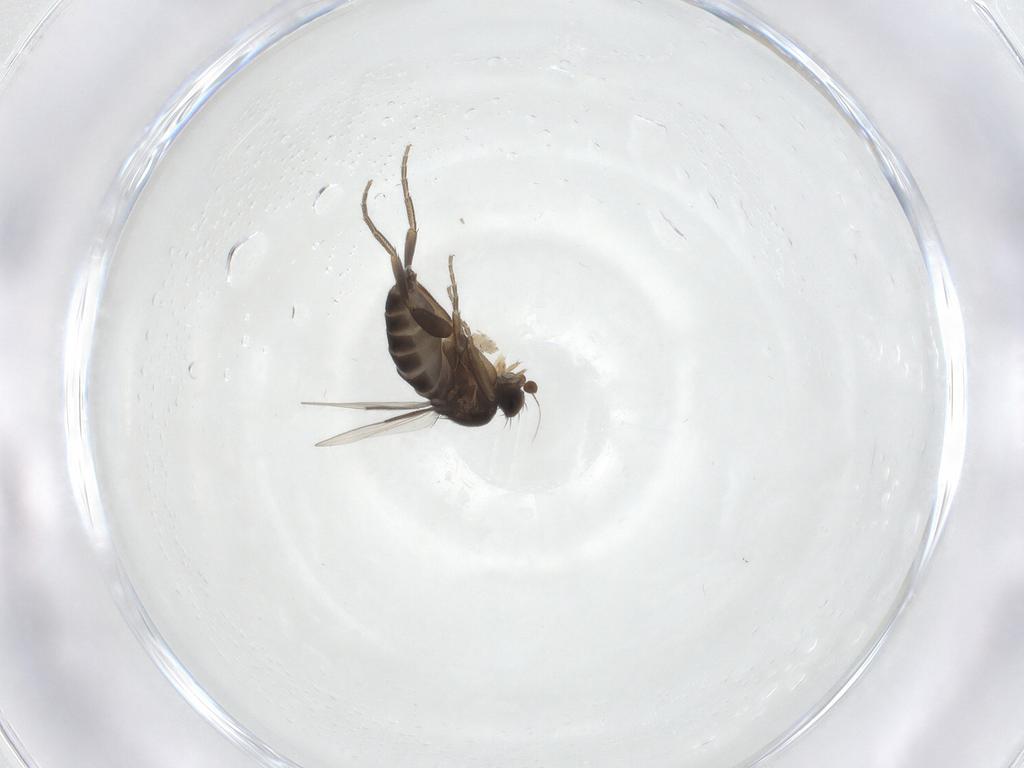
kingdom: Animalia
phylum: Arthropoda
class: Insecta
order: Diptera
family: Phoridae
